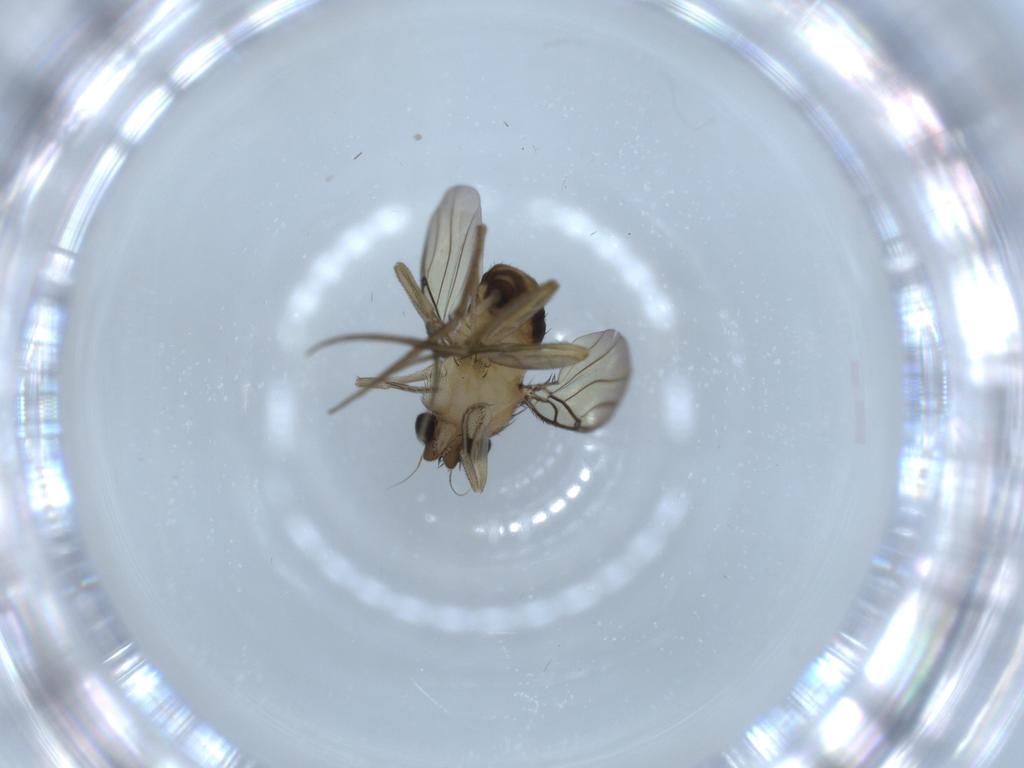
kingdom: Animalia
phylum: Arthropoda
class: Insecta
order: Diptera
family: Phoridae
